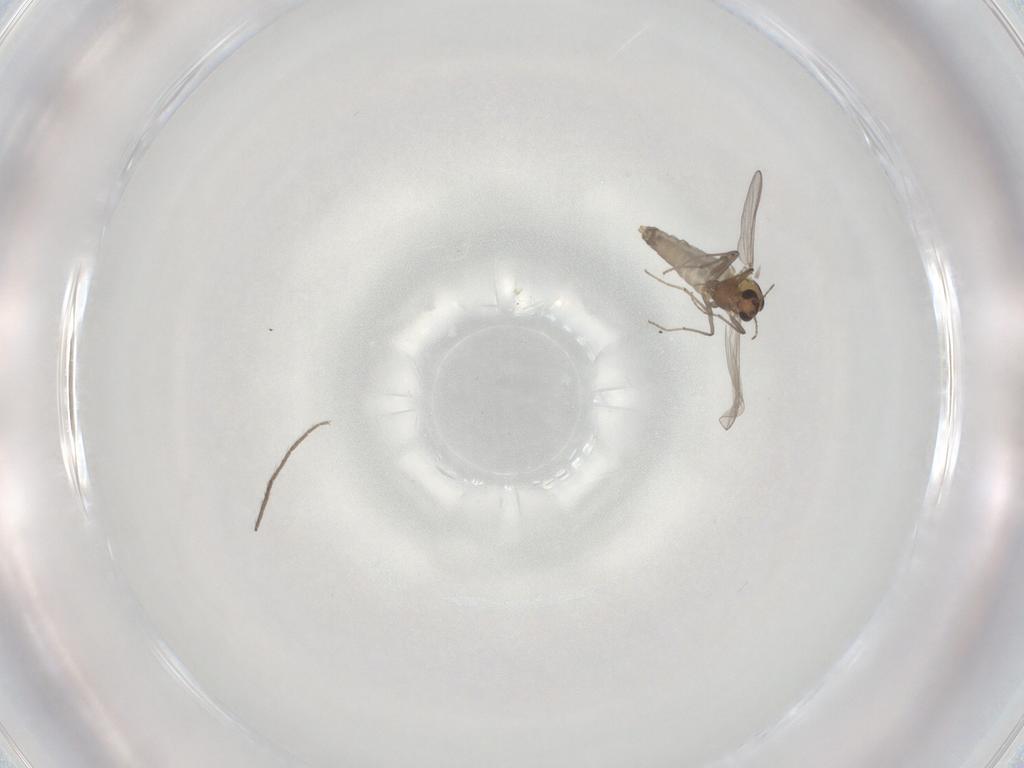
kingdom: Animalia
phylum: Arthropoda
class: Insecta
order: Diptera
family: Chironomidae
